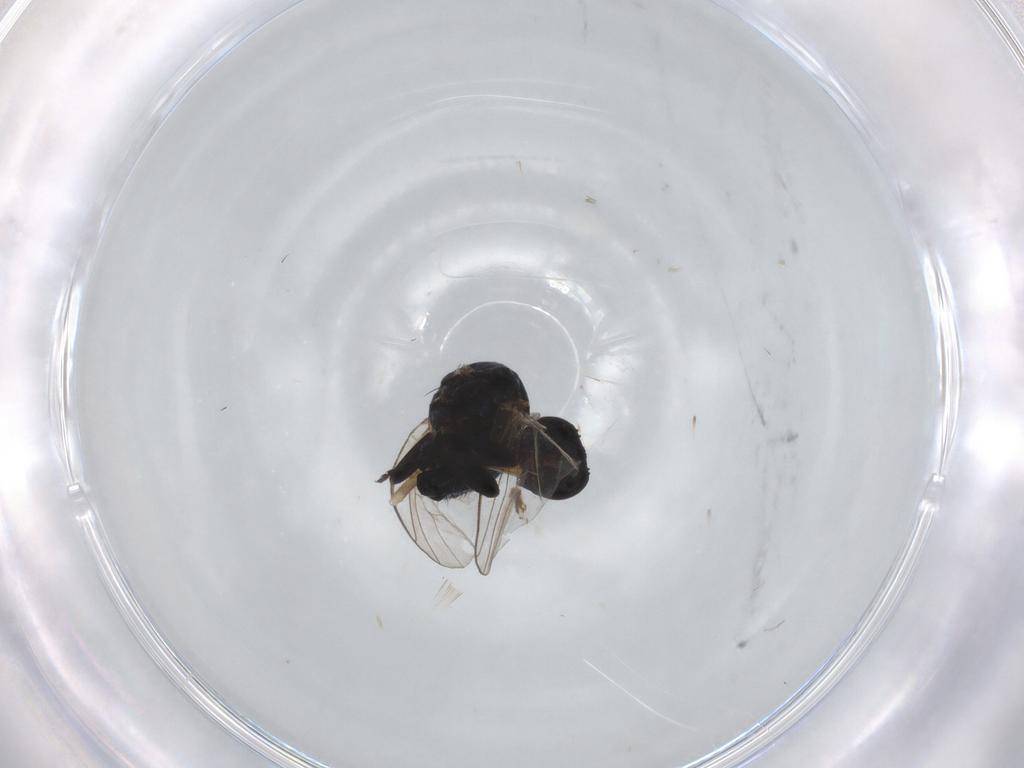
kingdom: Animalia
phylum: Arthropoda
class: Insecta
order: Diptera
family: Agromyzidae
